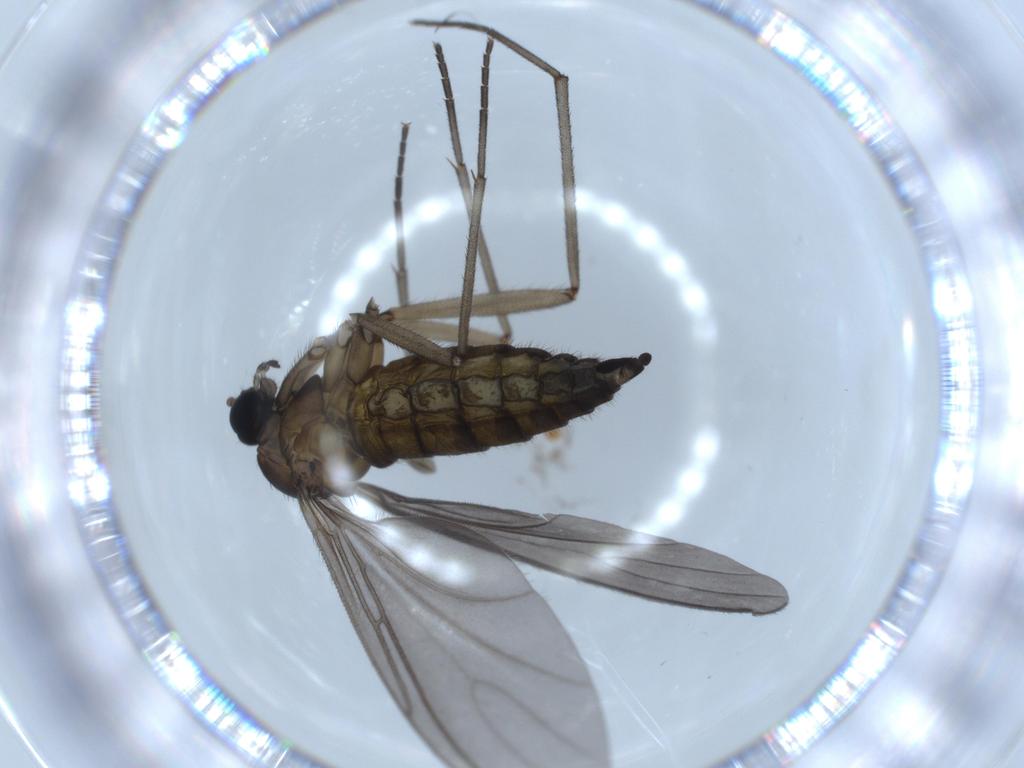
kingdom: Animalia
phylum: Arthropoda
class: Insecta
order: Diptera
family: Sciaridae
